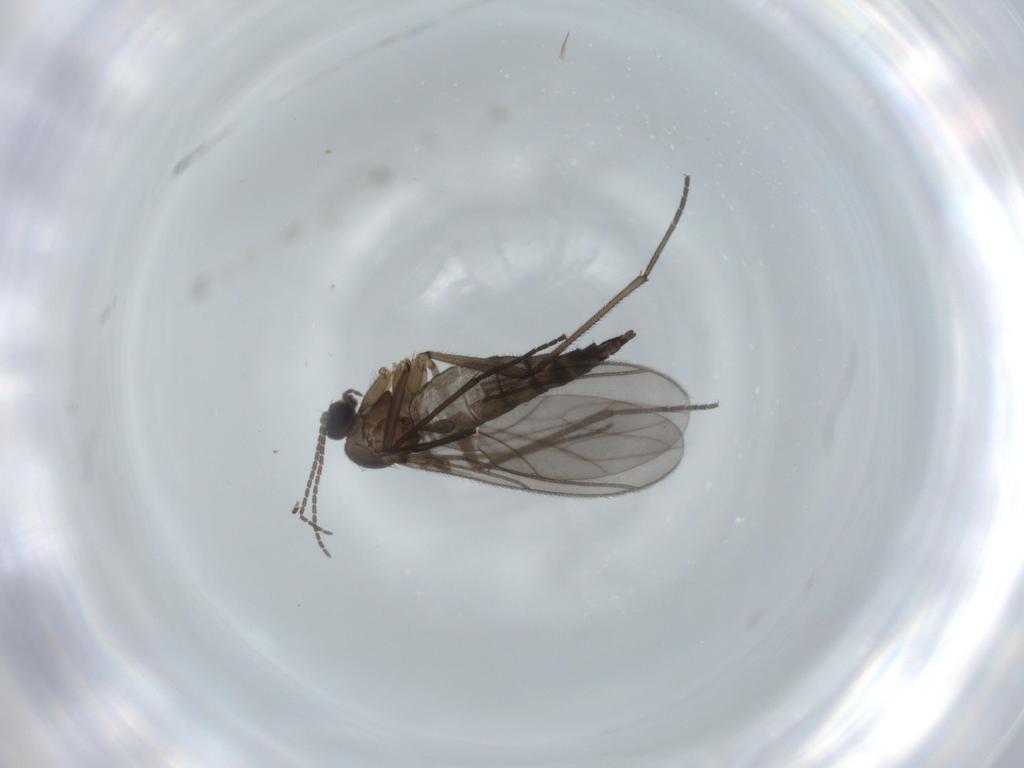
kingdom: Animalia
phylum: Arthropoda
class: Insecta
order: Diptera
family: Sciaridae
